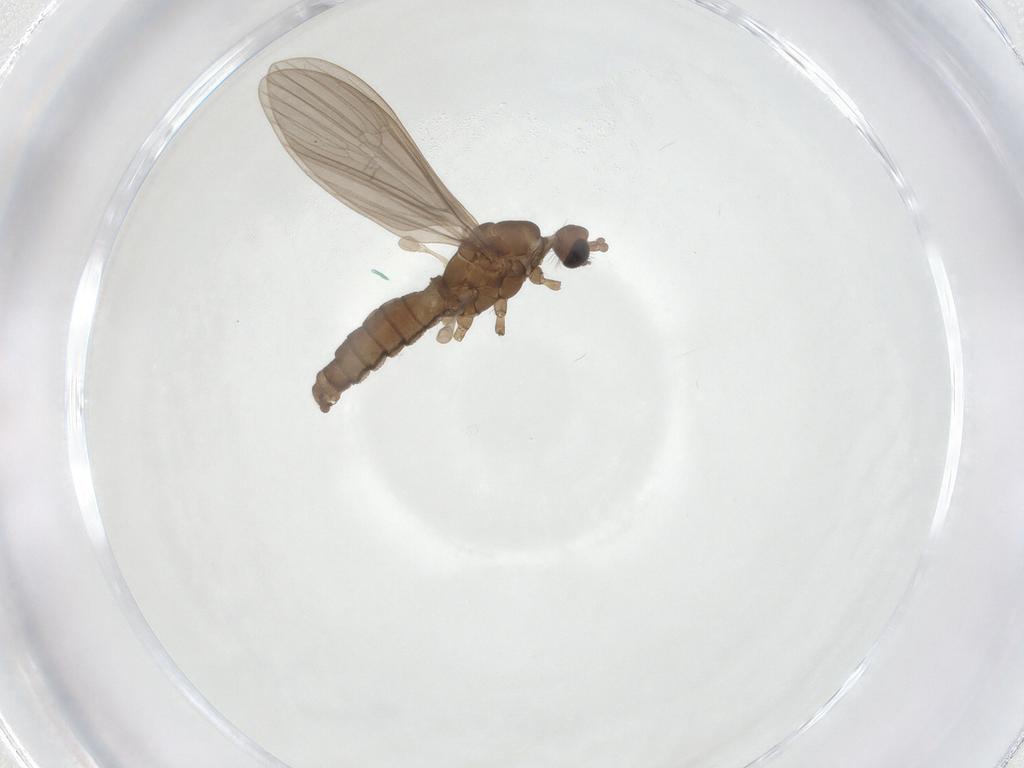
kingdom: Animalia
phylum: Arthropoda
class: Insecta
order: Diptera
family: Limoniidae
